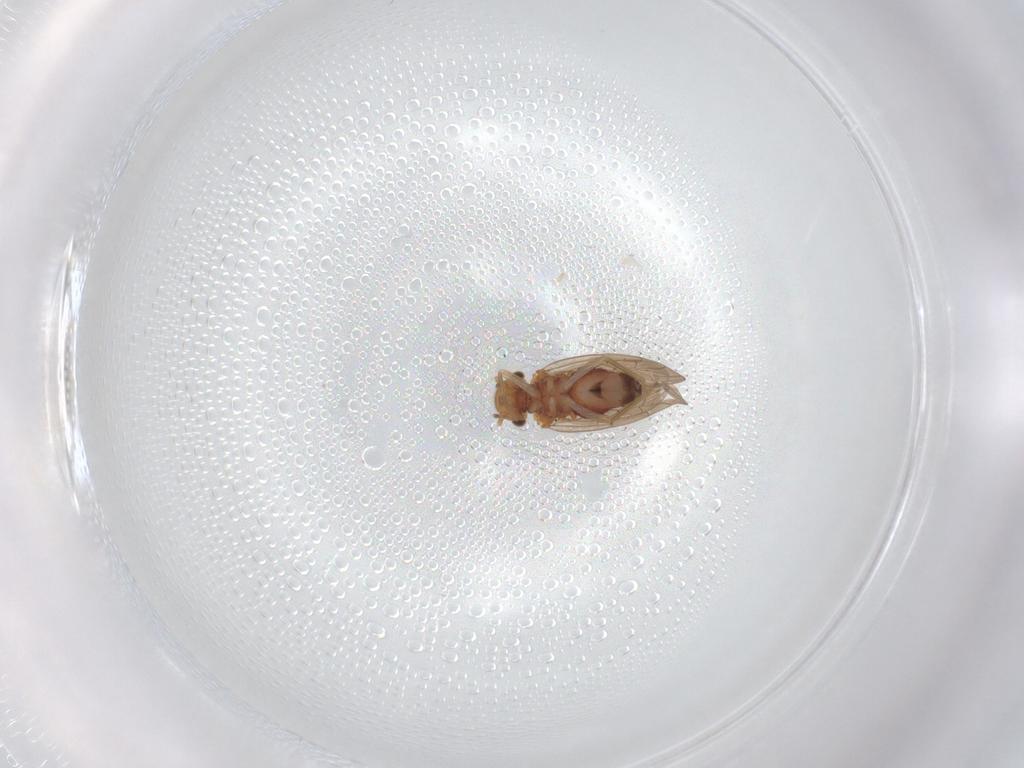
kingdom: Animalia
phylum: Arthropoda
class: Insecta
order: Psocodea
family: Ectopsocidae
